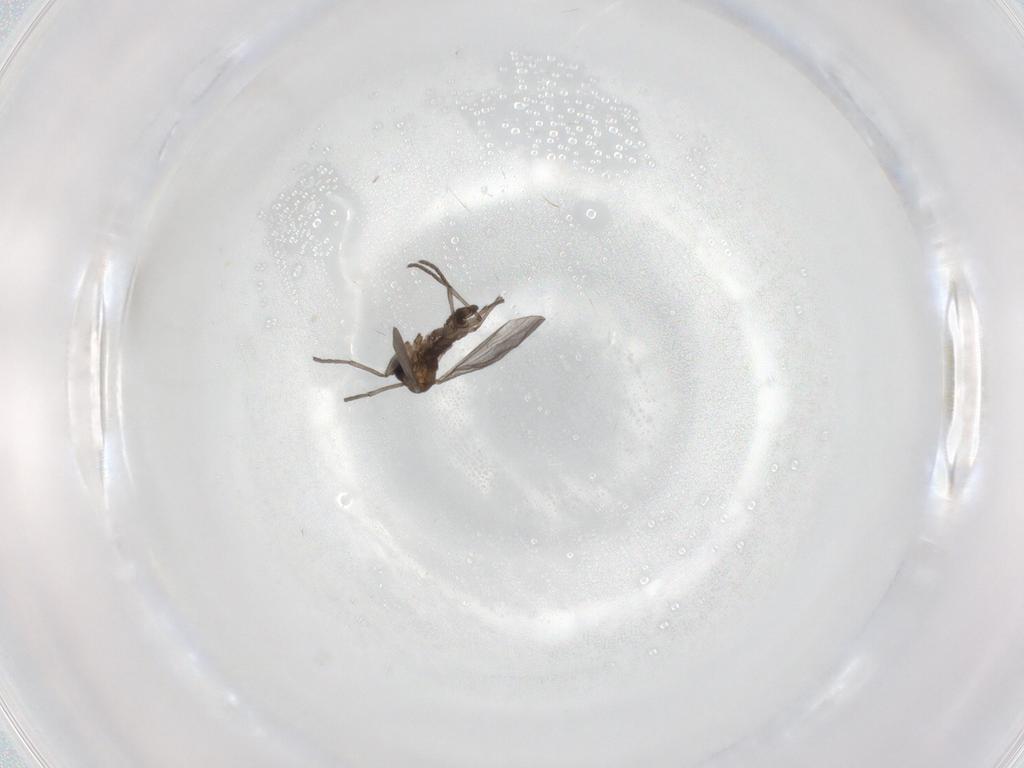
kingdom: Animalia
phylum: Arthropoda
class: Insecta
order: Diptera
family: Sciaridae
